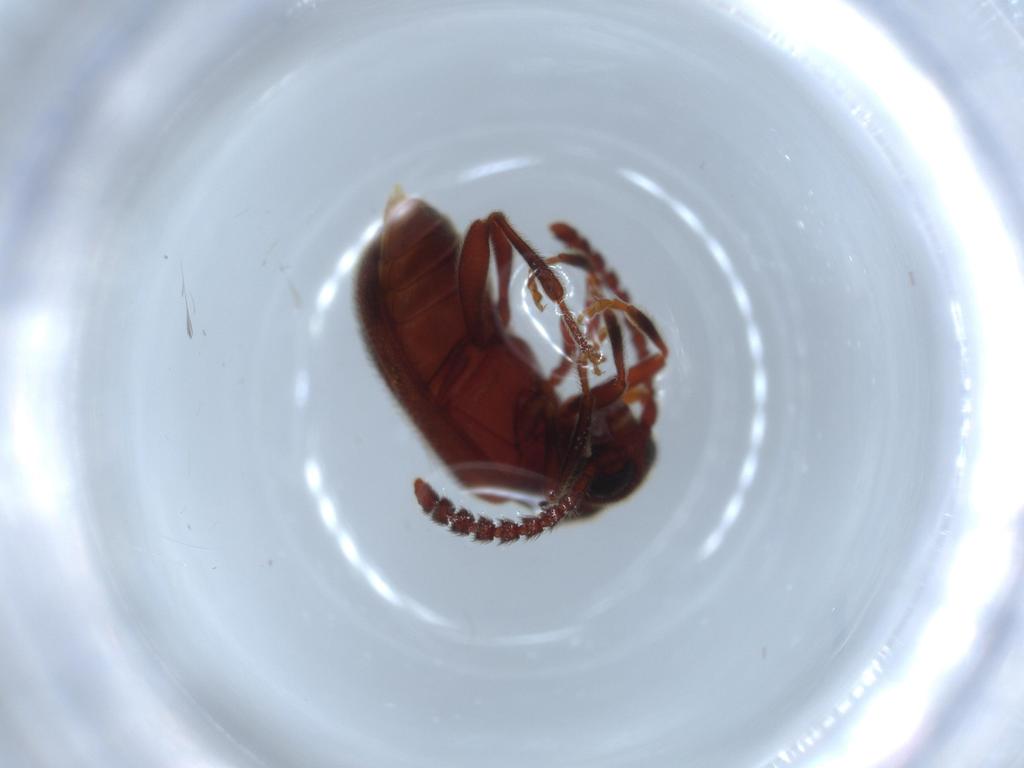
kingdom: Animalia
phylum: Arthropoda
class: Insecta
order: Coleoptera
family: Aderidae
